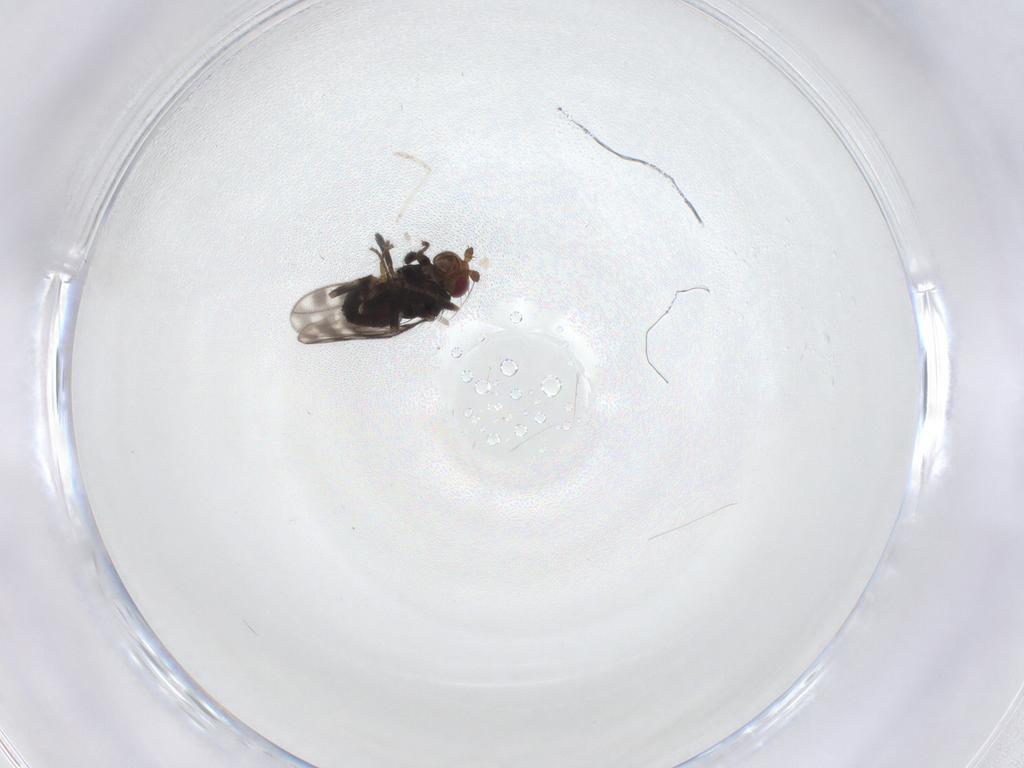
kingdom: Animalia
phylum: Arthropoda
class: Insecta
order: Diptera
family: Sphaeroceridae
